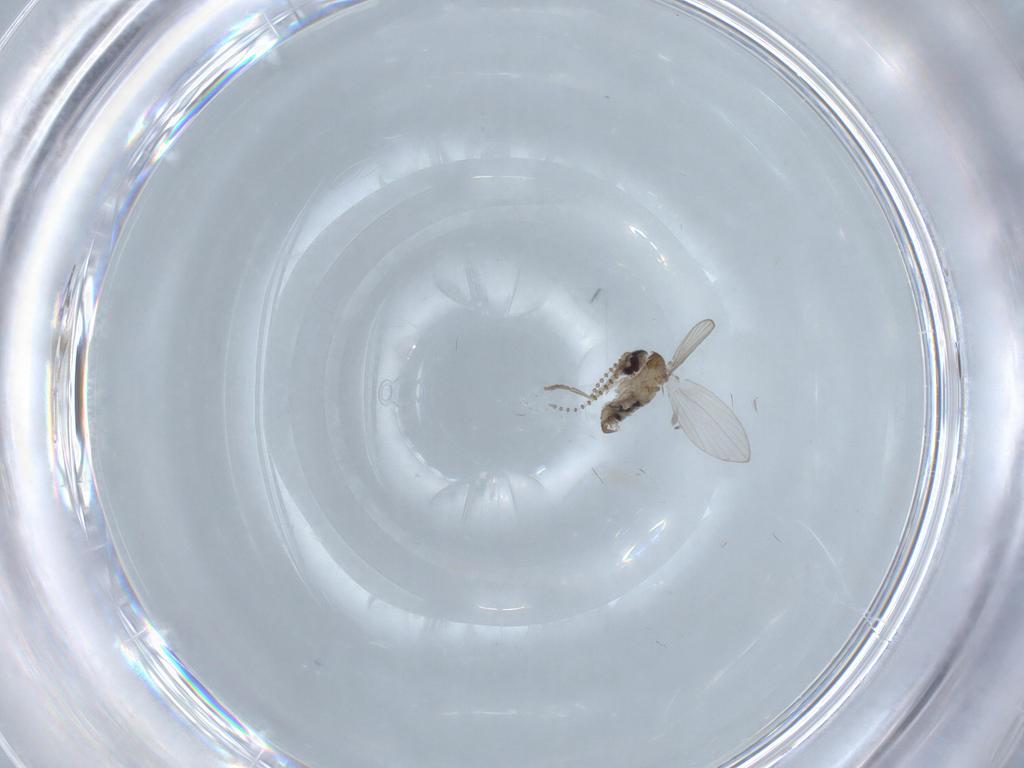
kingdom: Animalia
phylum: Arthropoda
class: Insecta
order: Diptera
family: Psychodidae
